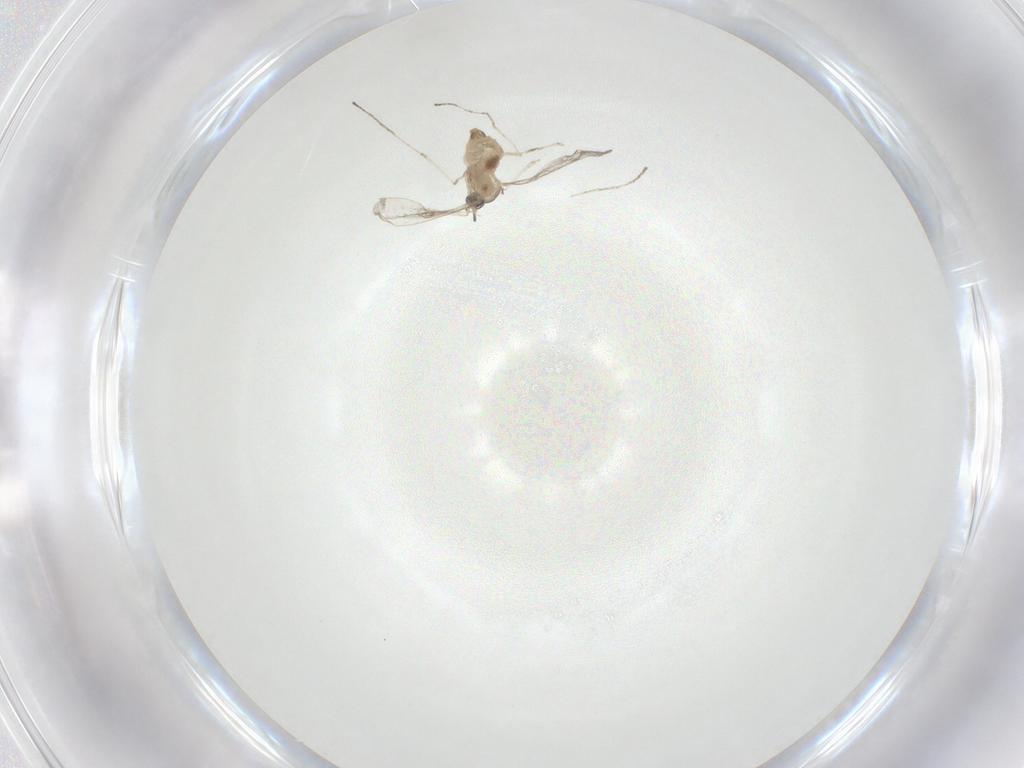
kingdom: Animalia
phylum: Arthropoda
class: Insecta
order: Diptera
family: Cecidomyiidae
